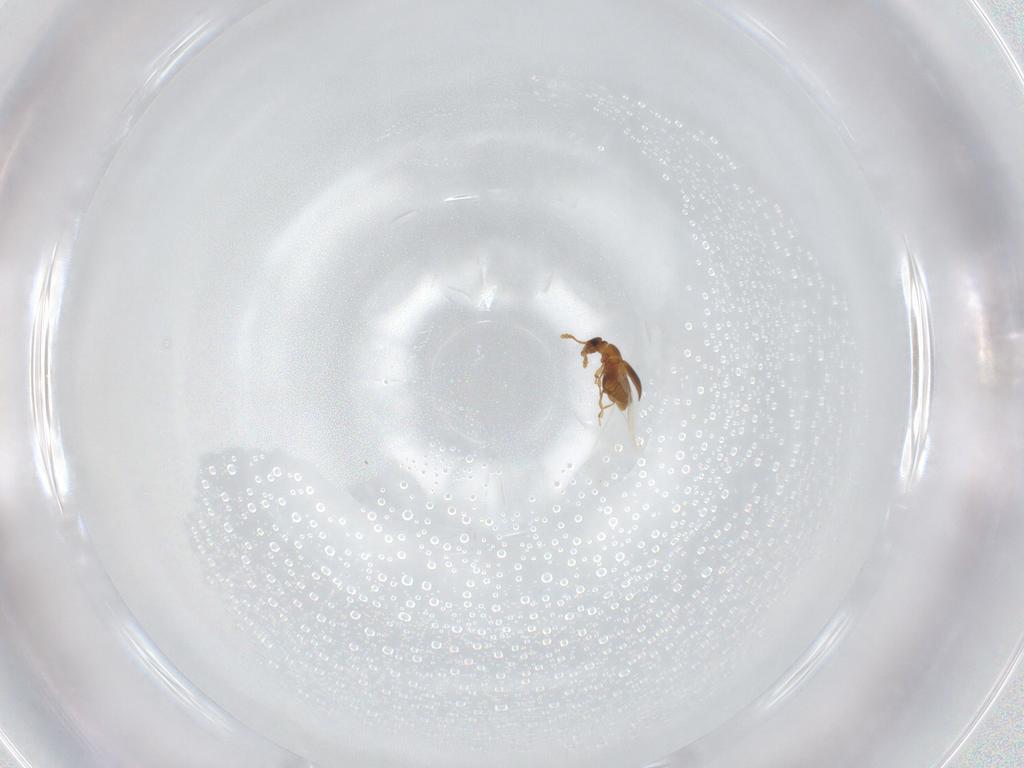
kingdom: Animalia
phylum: Arthropoda
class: Insecta
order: Coleoptera
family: Staphylinidae
